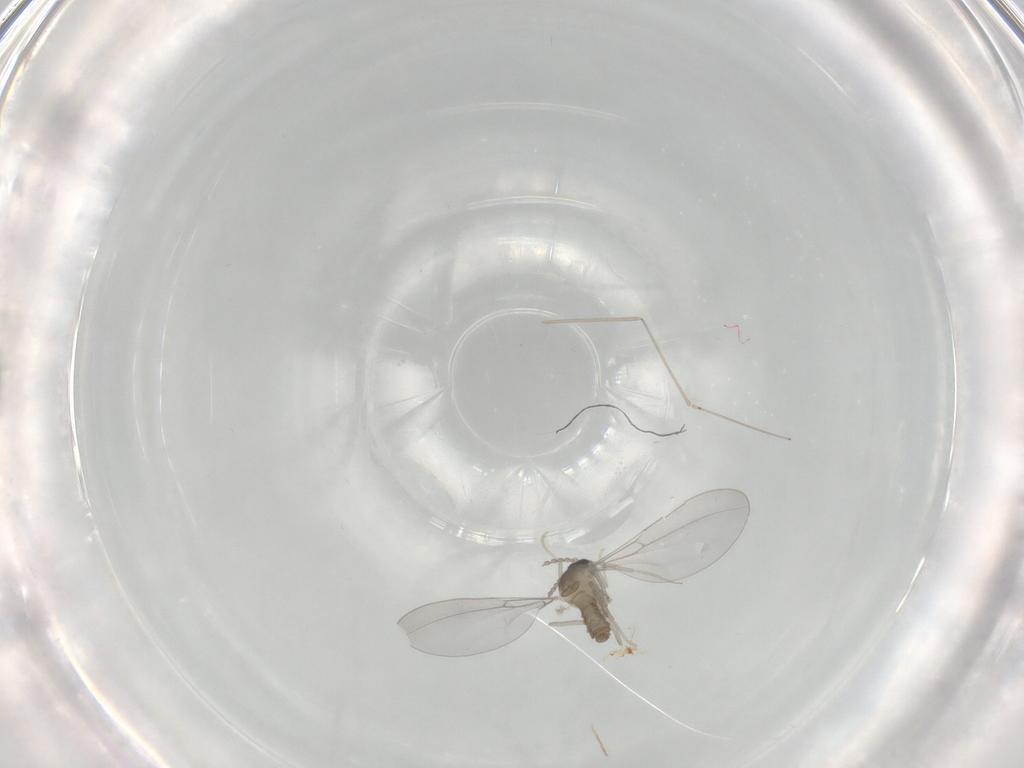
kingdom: Animalia
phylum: Arthropoda
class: Insecta
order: Diptera
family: Cecidomyiidae
